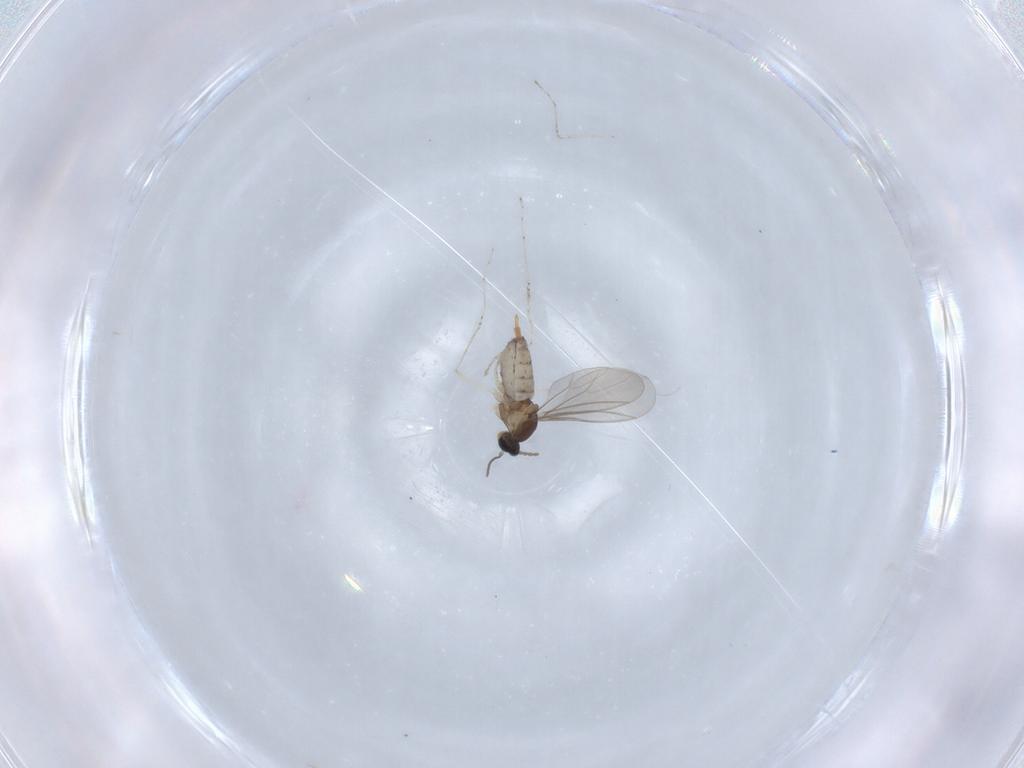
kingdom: Animalia
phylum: Arthropoda
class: Insecta
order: Diptera
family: Cecidomyiidae
